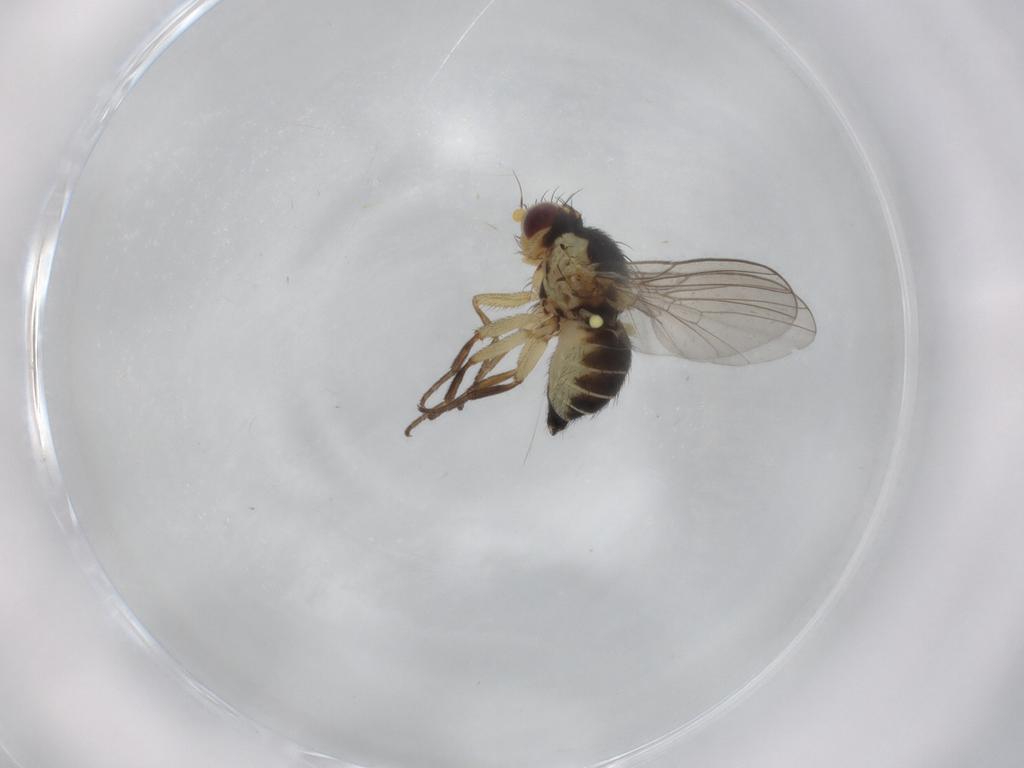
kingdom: Animalia
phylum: Arthropoda
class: Insecta
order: Diptera
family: Agromyzidae
